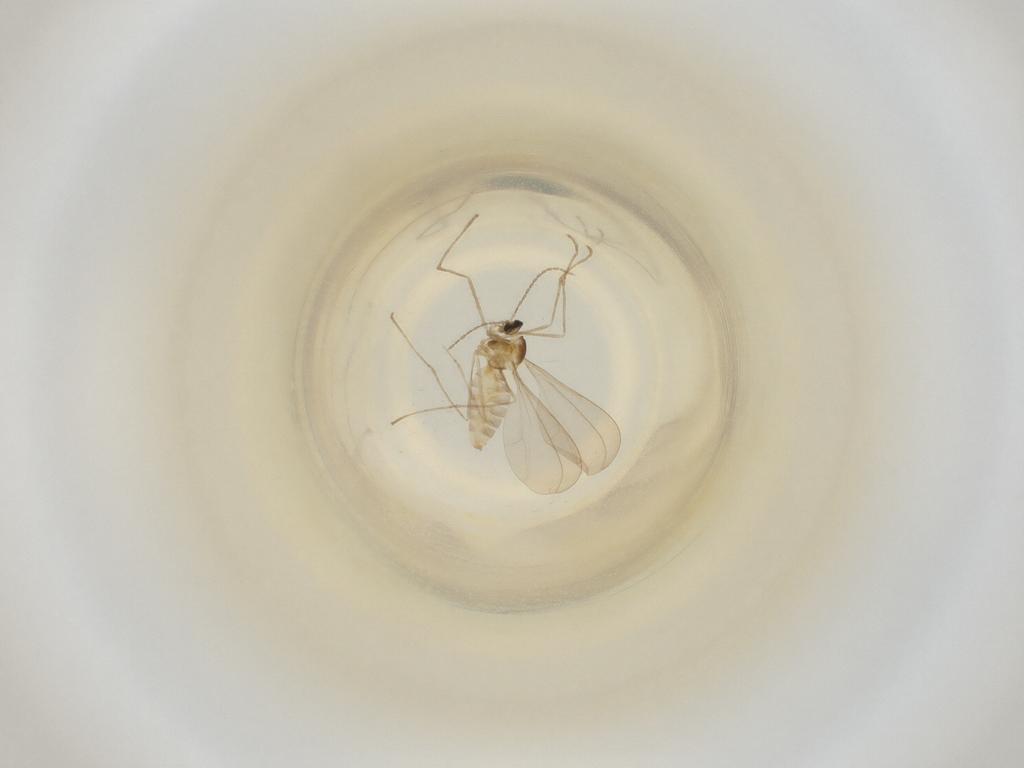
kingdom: Animalia
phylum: Arthropoda
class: Insecta
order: Diptera
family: Cecidomyiidae
